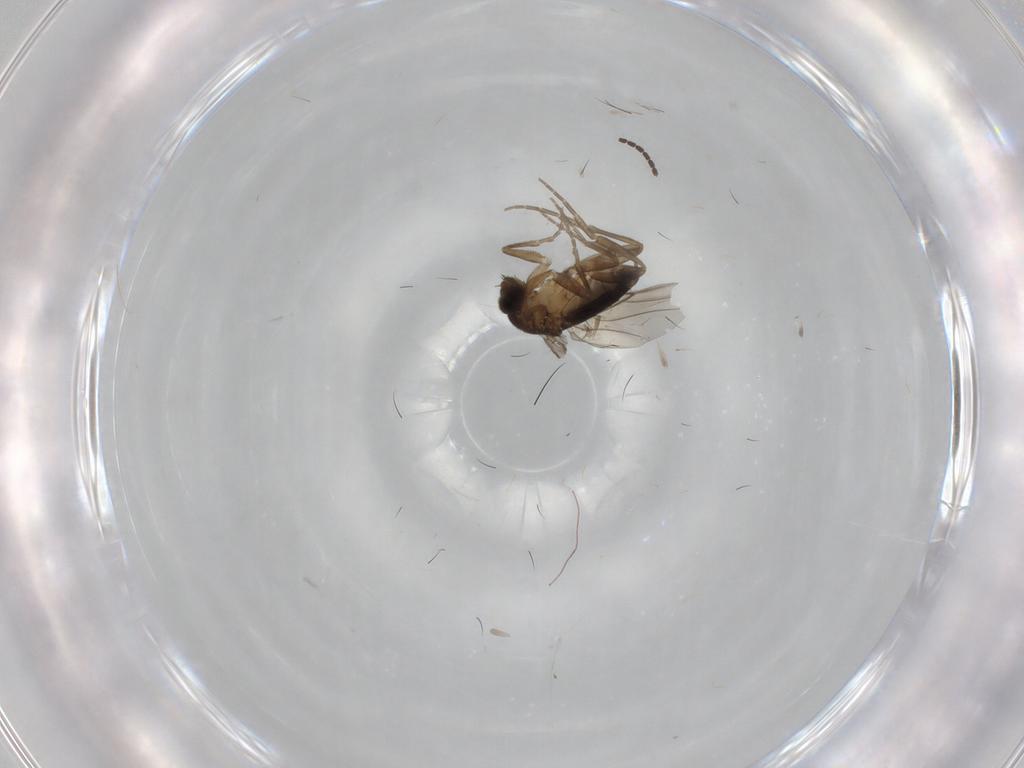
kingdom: Animalia
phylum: Arthropoda
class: Insecta
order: Diptera
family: Phoridae
